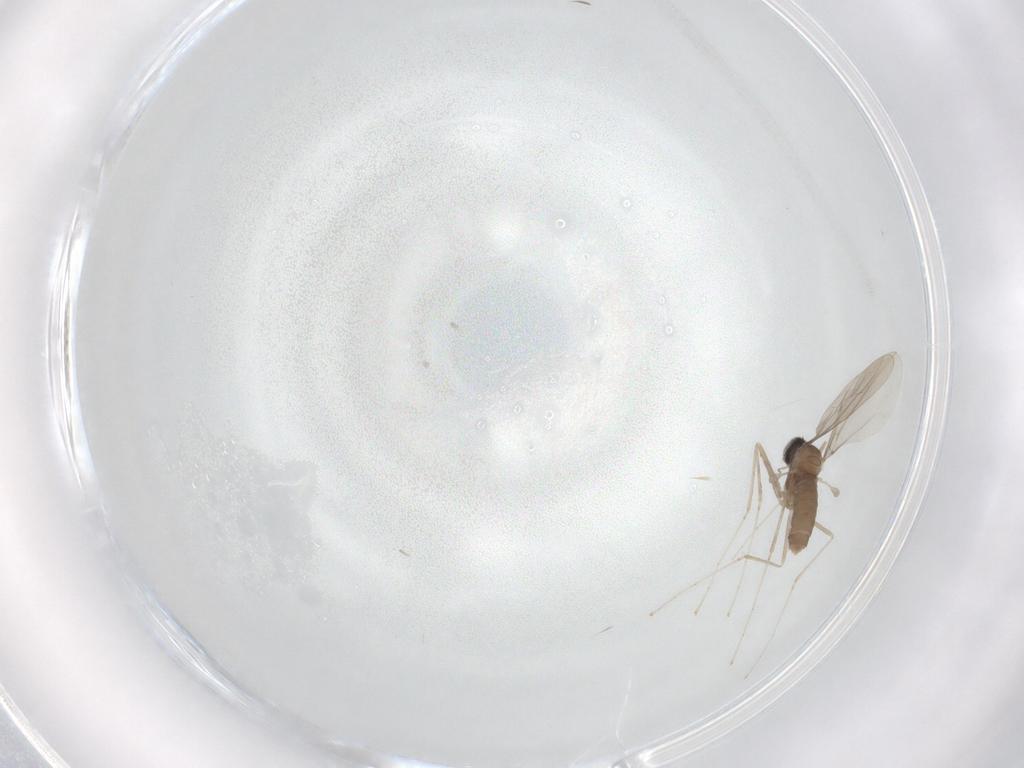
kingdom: Animalia
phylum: Arthropoda
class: Insecta
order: Diptera
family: Cecidomyiidae
